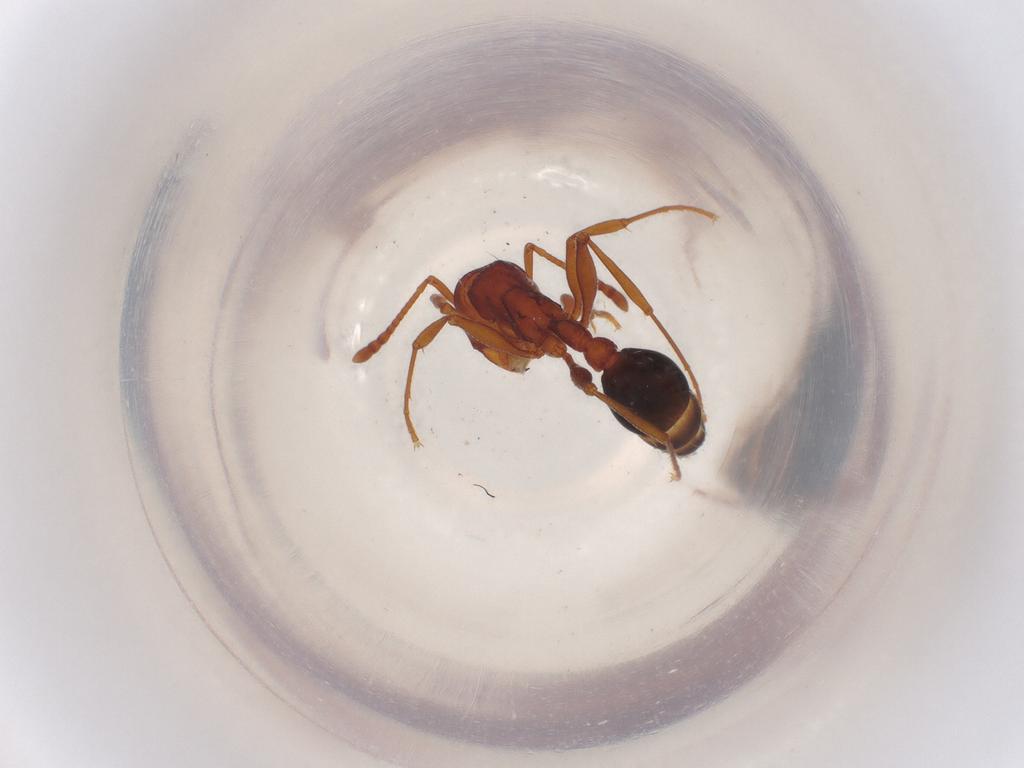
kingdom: Animalia
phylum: Arthropoda
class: Insecta
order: Hymenoptera
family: Formicidae
